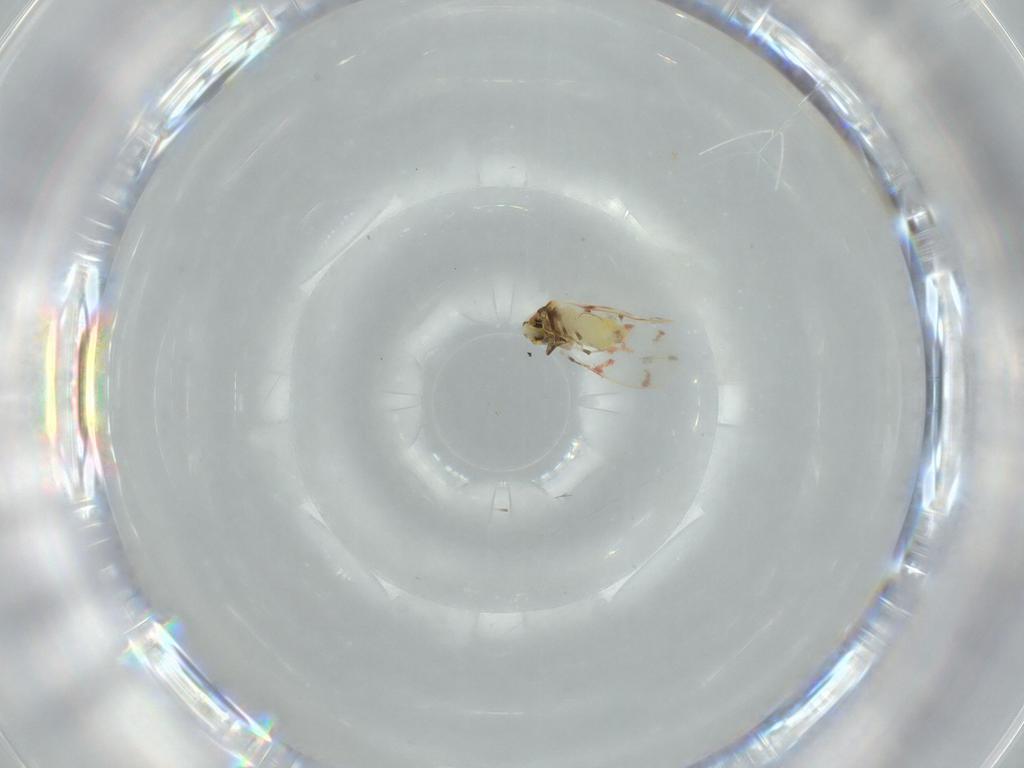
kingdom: Animalia
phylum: Arthropoda
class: Insecta
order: Hemiptera
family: Aleyrodidae
